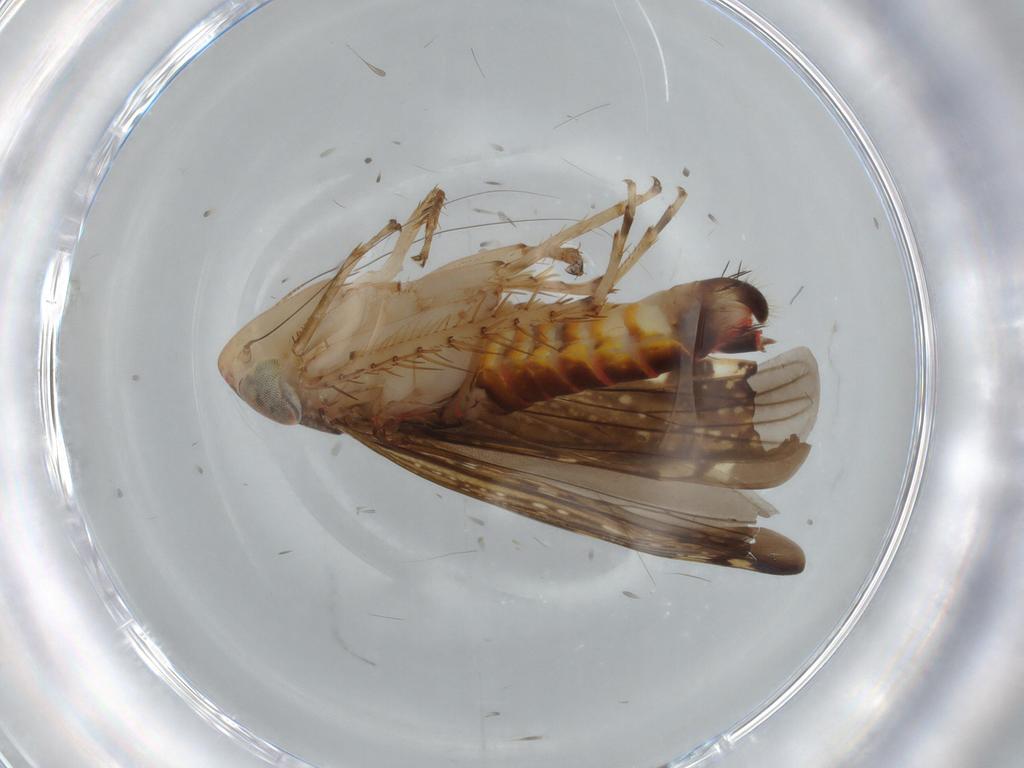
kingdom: Animalia
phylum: Arthropoda
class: Insecta
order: Hemiptera
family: Cicadellidae
